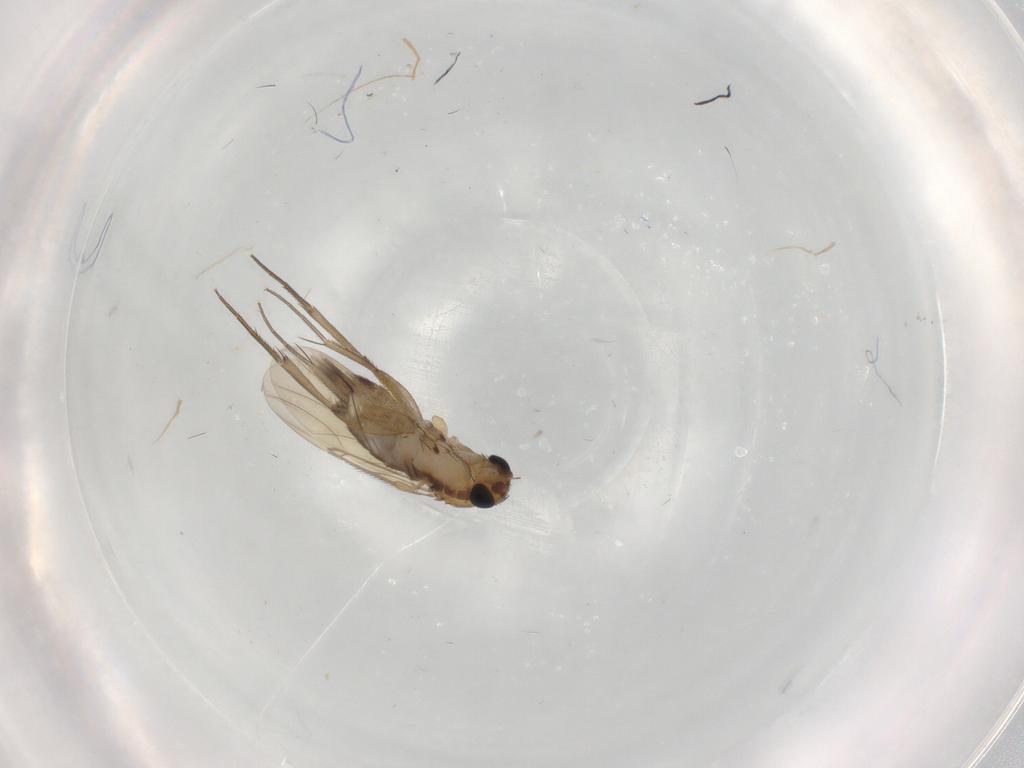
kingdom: Animalia
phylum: Arthropoda
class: Insecta
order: Diptera
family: Phoridae
